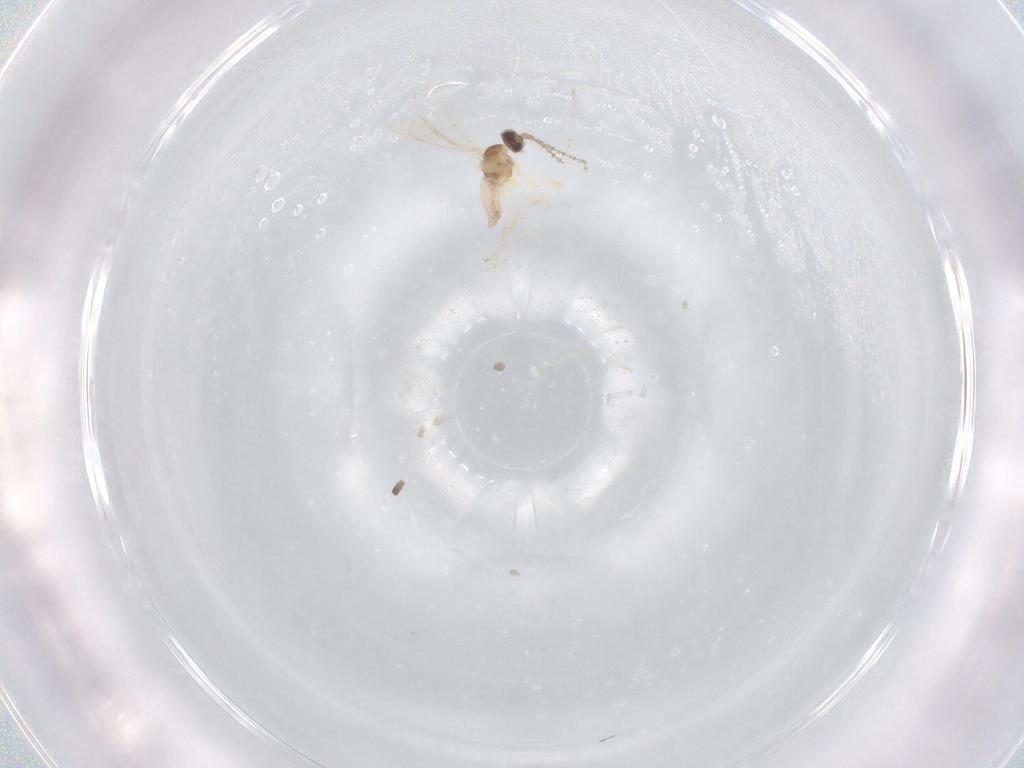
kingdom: Animalia
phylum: Arthropoda
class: Insecta
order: Diptera
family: Cecidomyiidae
